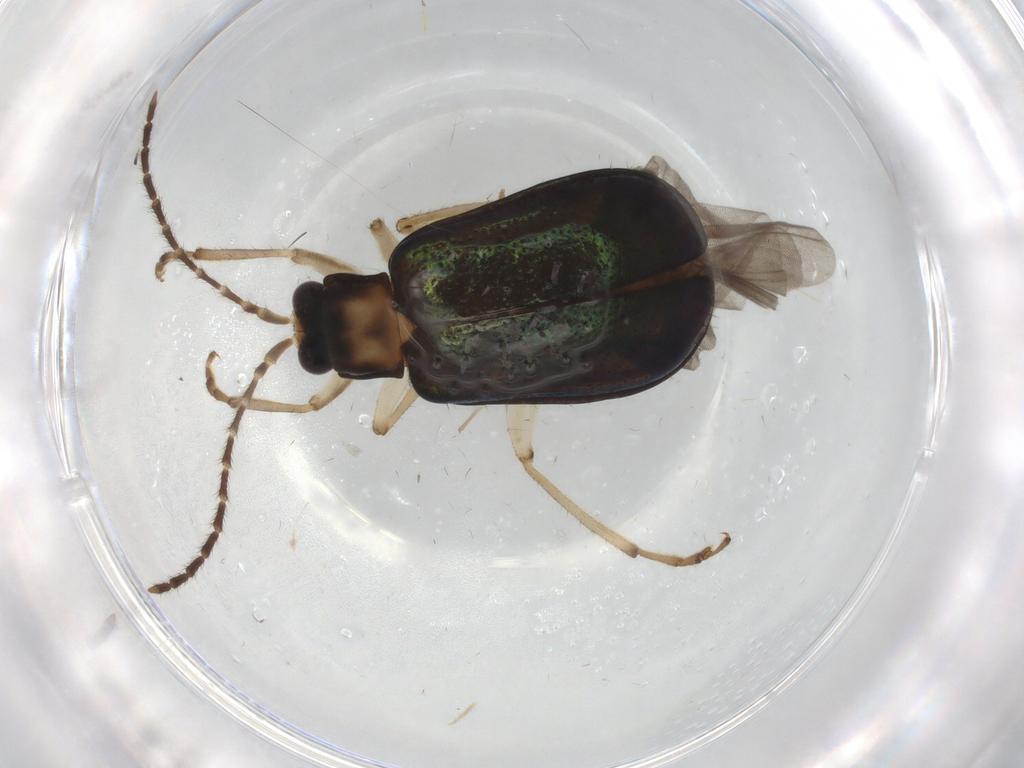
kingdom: Animalia
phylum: Arthropoda
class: Insecta
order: Coleoptera
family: Chrysomelidae
